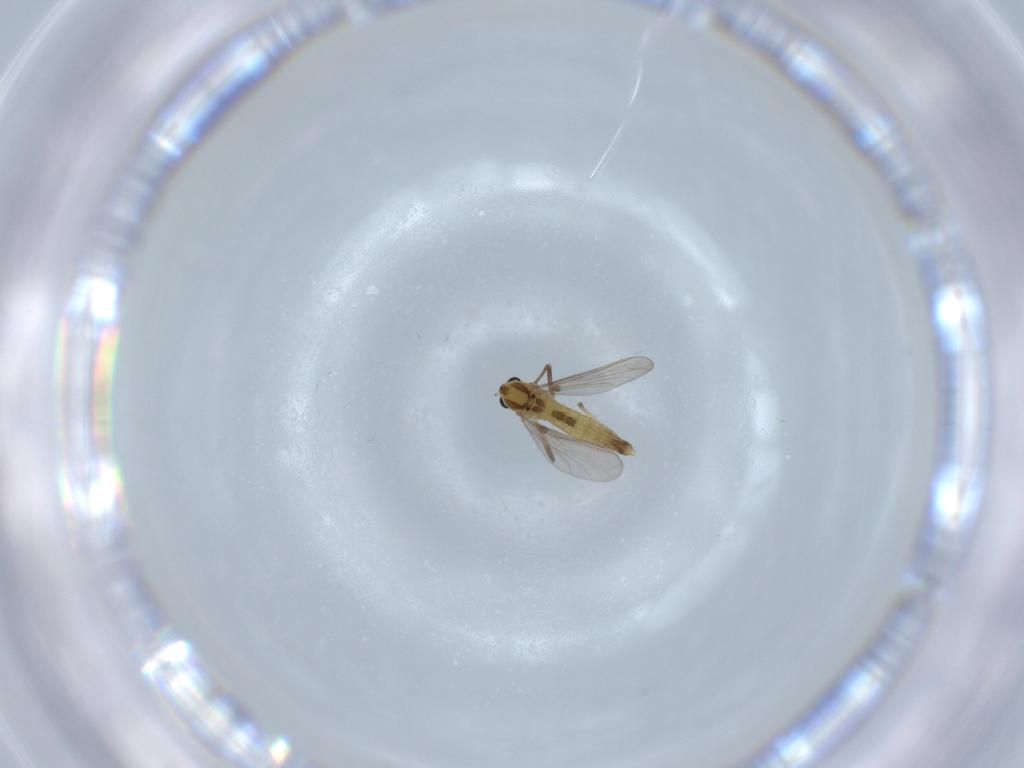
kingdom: Animalia
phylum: Arthropoda
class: Insecta
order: Diptera
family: Chironomidae
